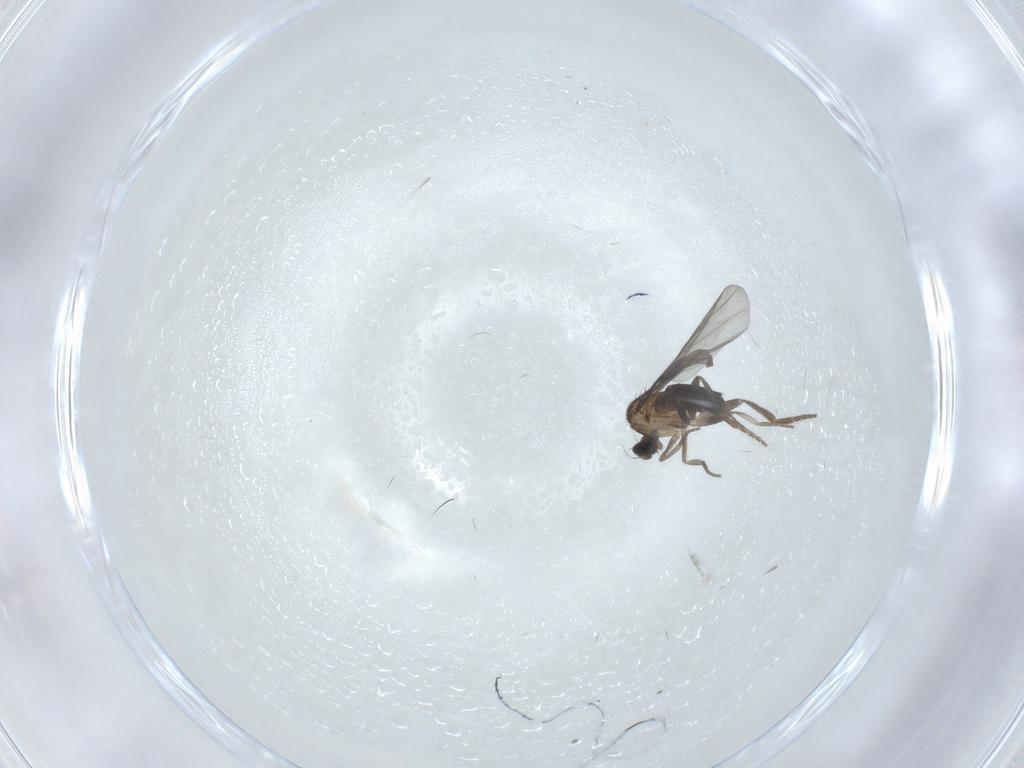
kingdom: Animalia
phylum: Arthropoda
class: Insecta
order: Diptera
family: Phoridae
